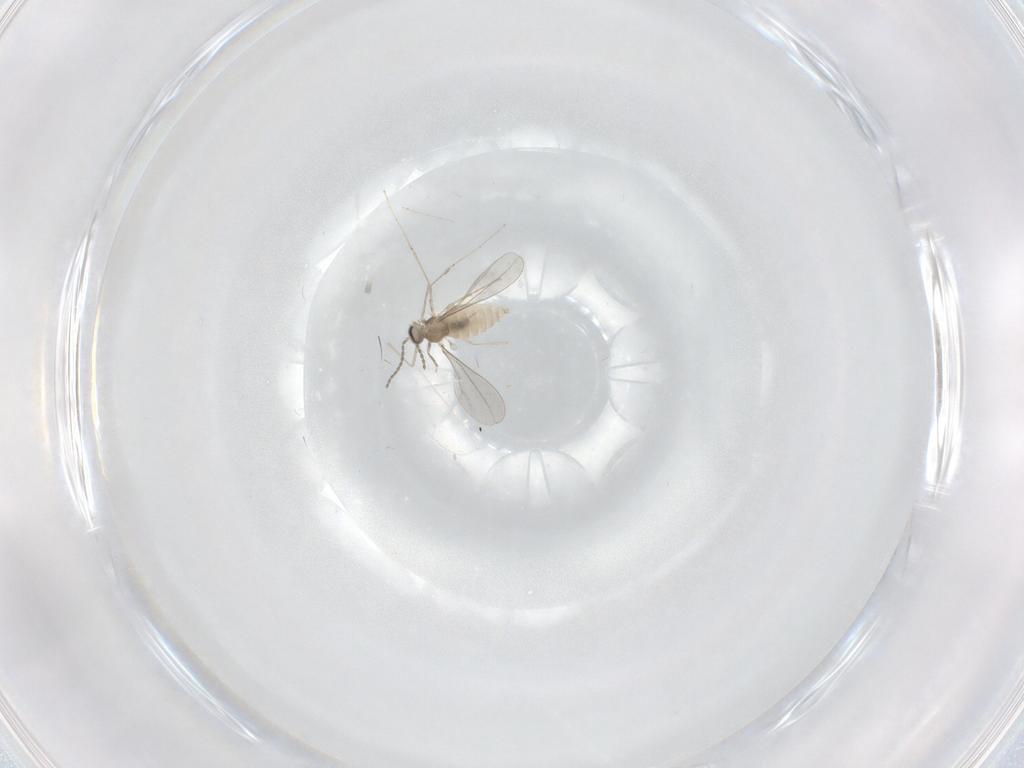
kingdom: Animalia
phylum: Arthropoda
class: Insecta
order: Diptera
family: Cecidomyiidae
